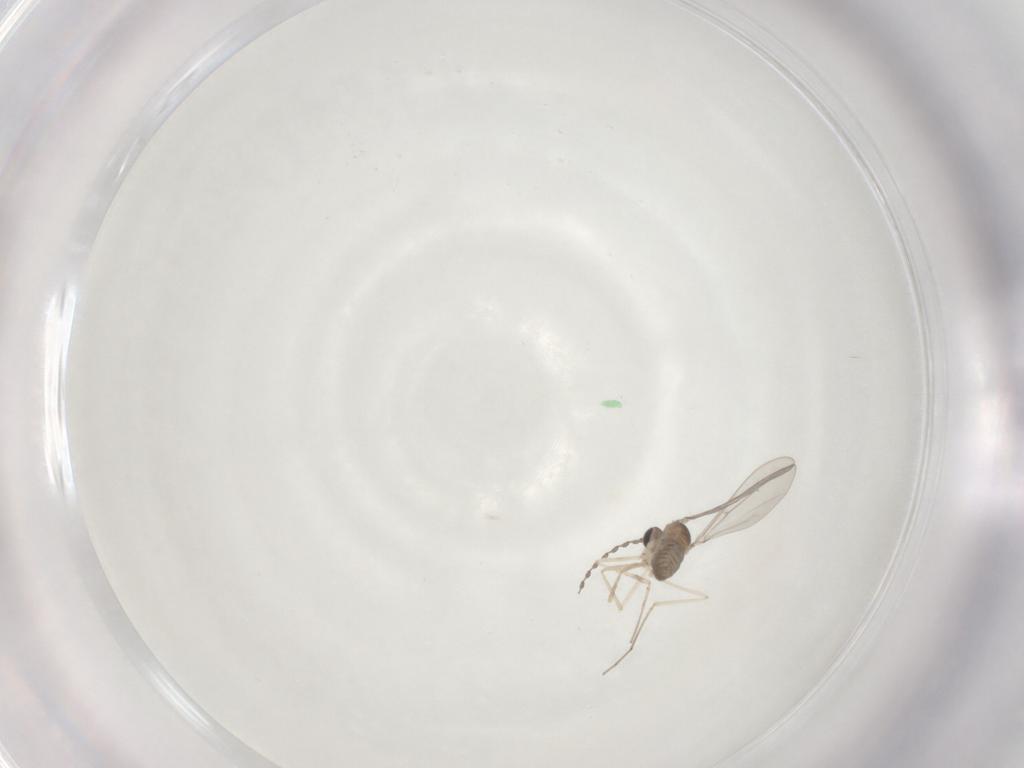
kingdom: Animalia
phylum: Arthropoda
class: Insecta
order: Diptera
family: Cecidomyiidae
